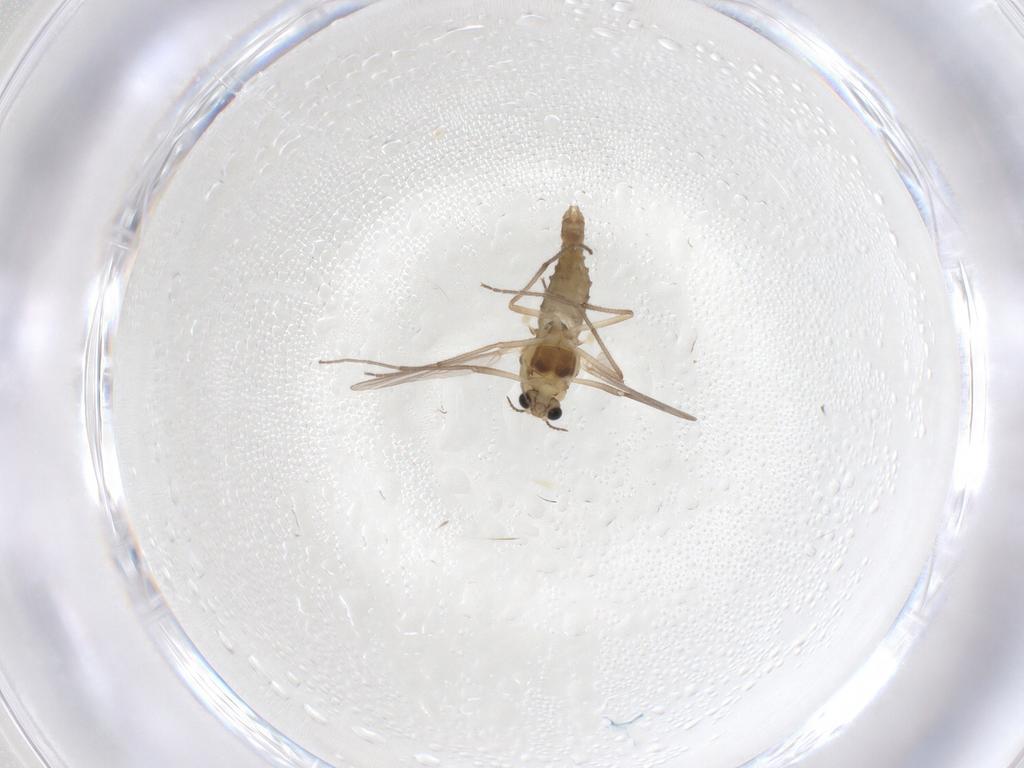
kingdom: Animalia
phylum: Arthropoda
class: Insecta
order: Diptera
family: Chironomidae
